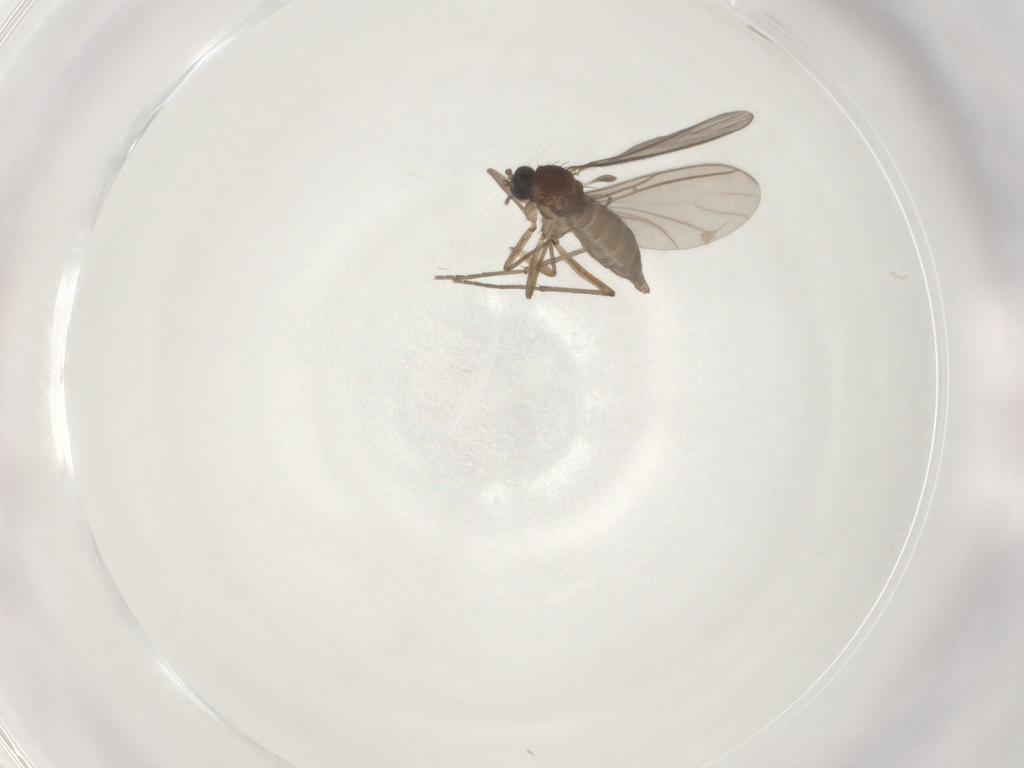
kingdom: Animalia
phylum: Arthropoda
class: Insecta
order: Diptera
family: Sciaridae
